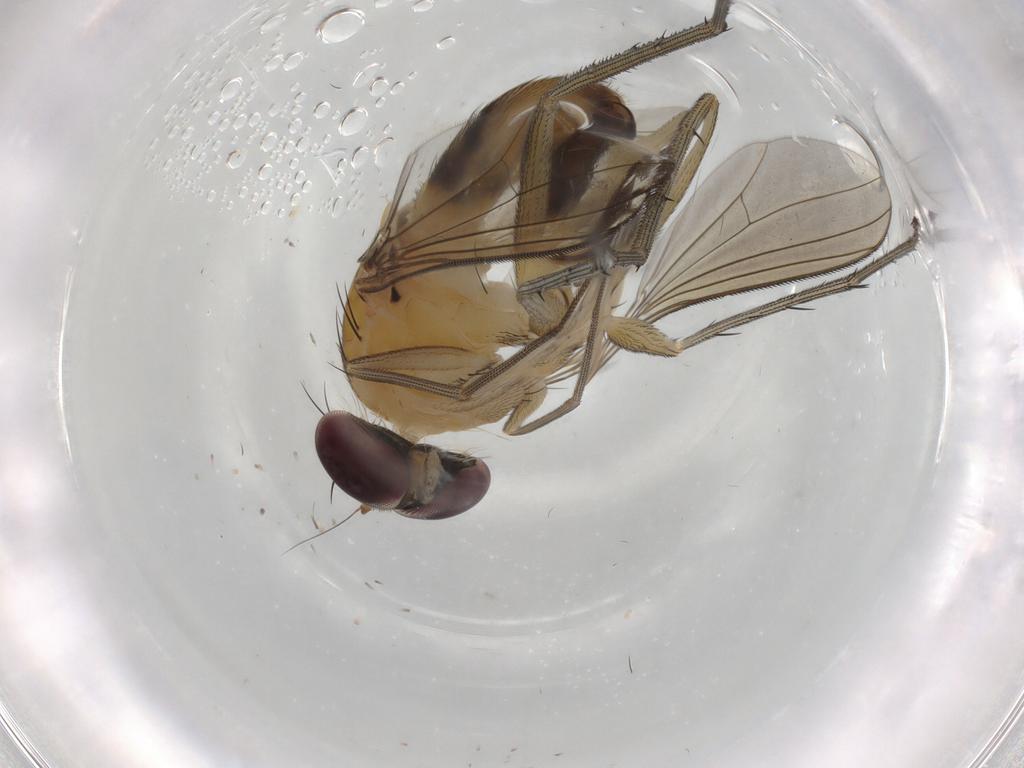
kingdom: Animalia
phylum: Arthropoda
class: Insecta
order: Diptera
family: Dolichopodidae
